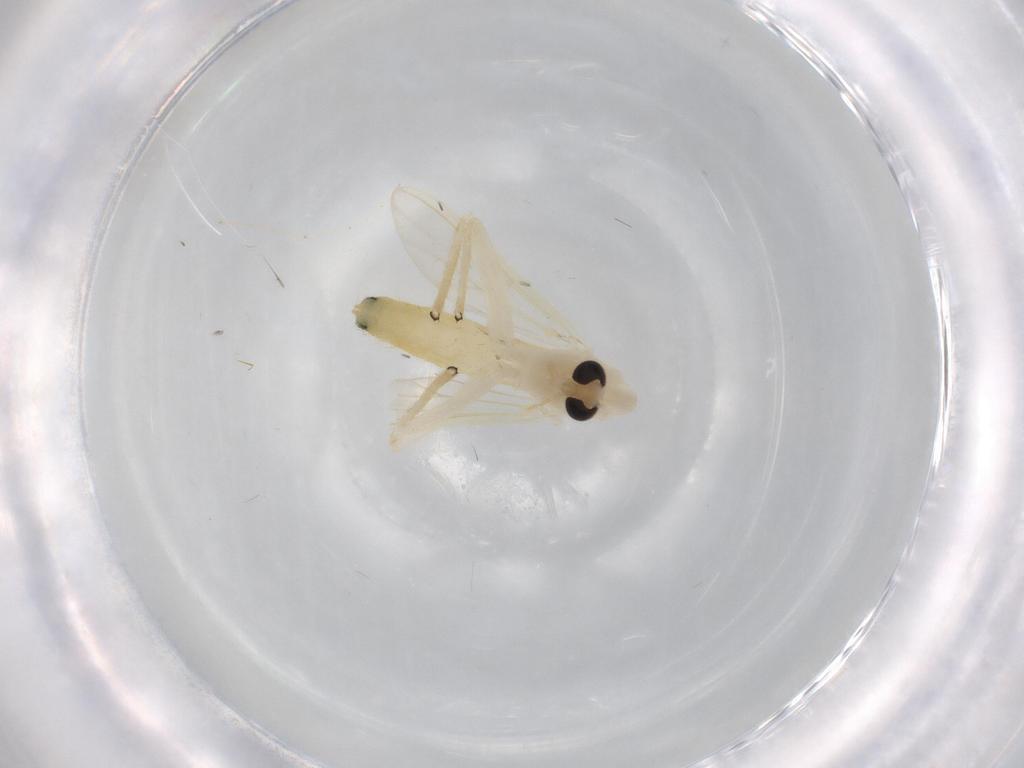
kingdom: Animalia
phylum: Arthropoda
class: Insecta
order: Diptera
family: Chironomidae
